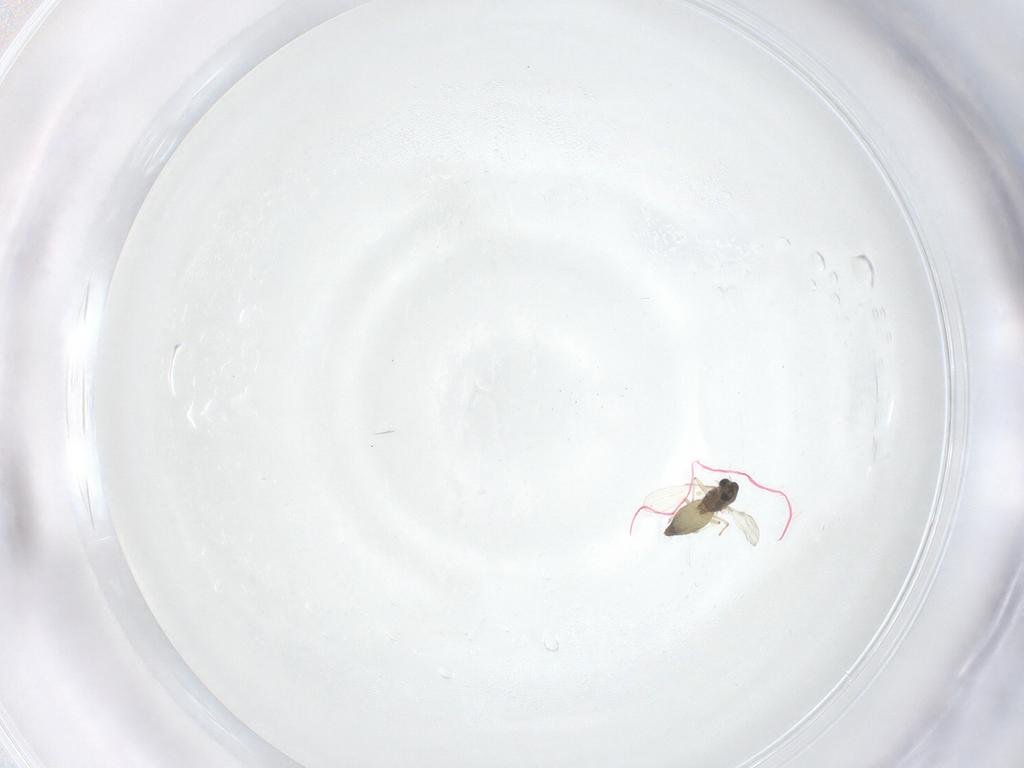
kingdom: Animalia
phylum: Arthropoda
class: Insecta
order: Diptera
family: Chironomidae
